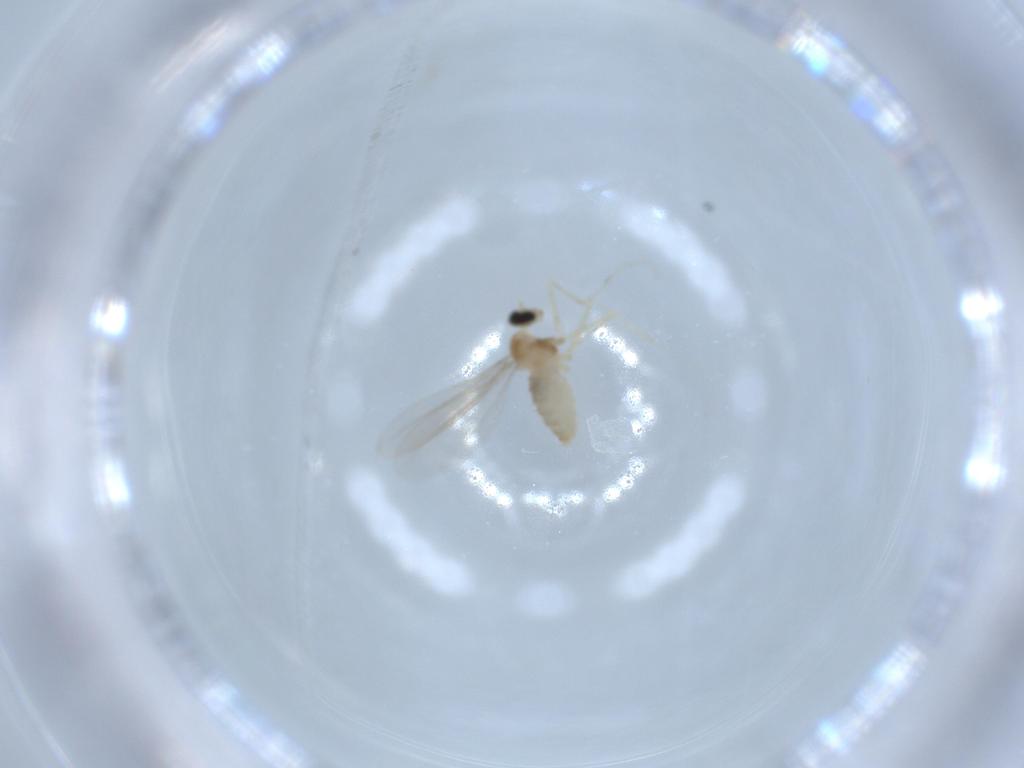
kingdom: Animalia
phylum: Arthropoda
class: Insecta
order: Diptera
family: Cecidomyiidae
